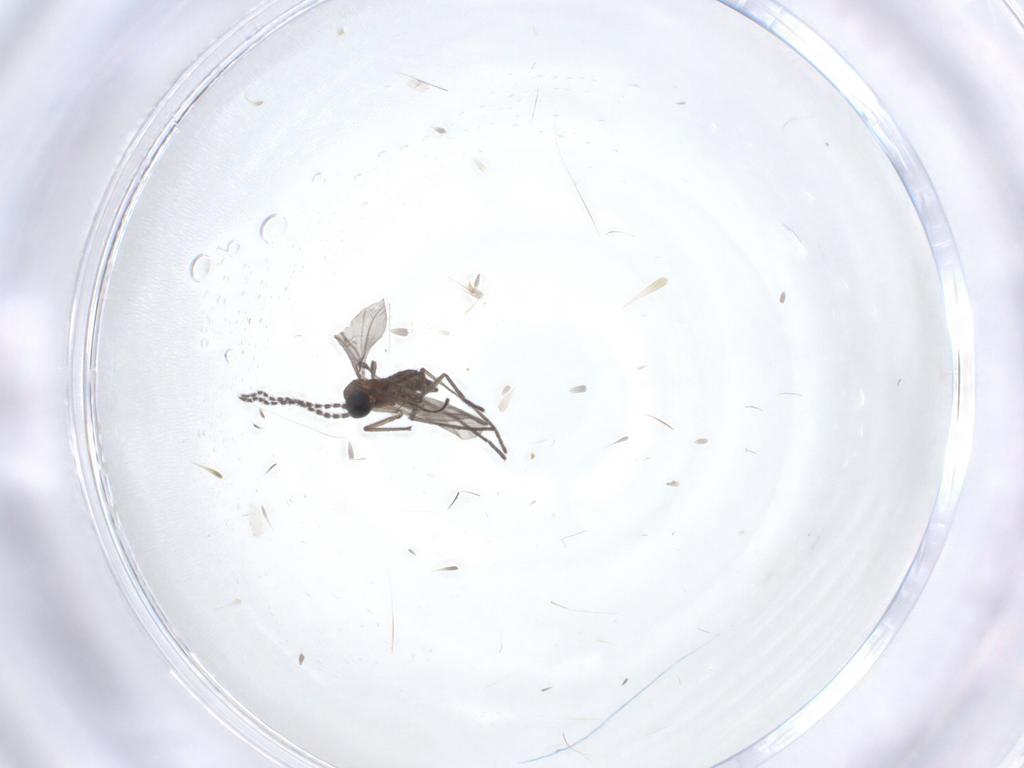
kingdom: Animalia
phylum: Arthropoda
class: Insecta
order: Diptera
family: Chironomidae
